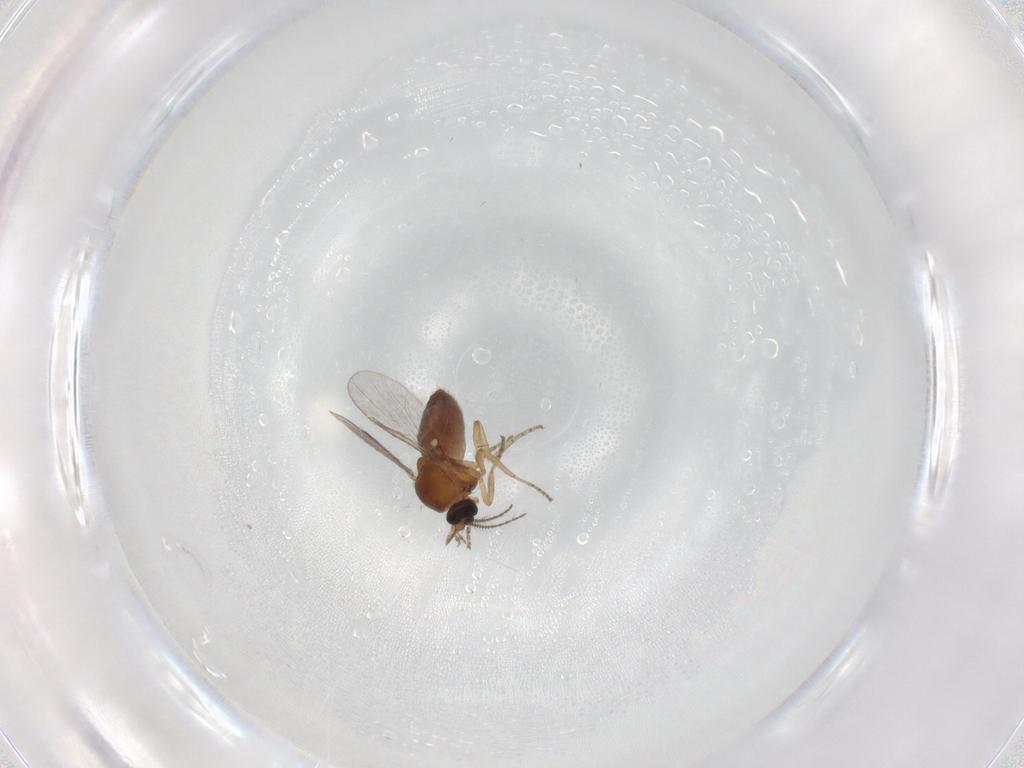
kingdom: Animalia
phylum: Arthropoda
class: Insecta
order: Diptera
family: Ceratopogonidae
